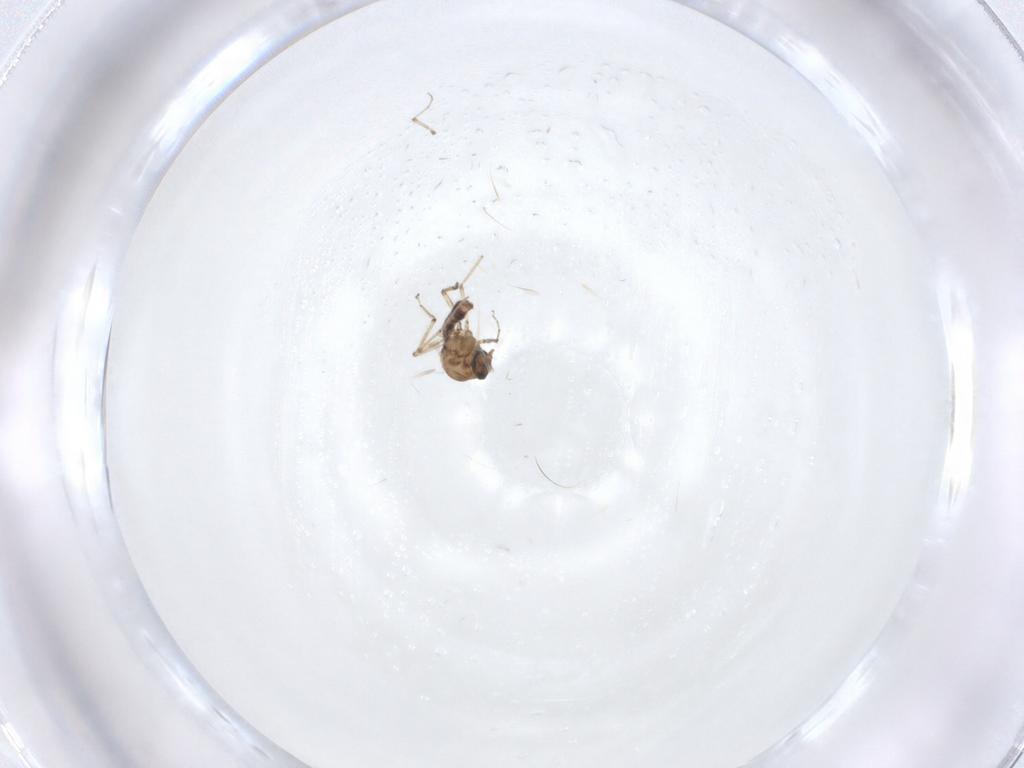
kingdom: Animalia
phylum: Arthropoda
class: Insecta
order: Diptera
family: Ceratopogonidae
